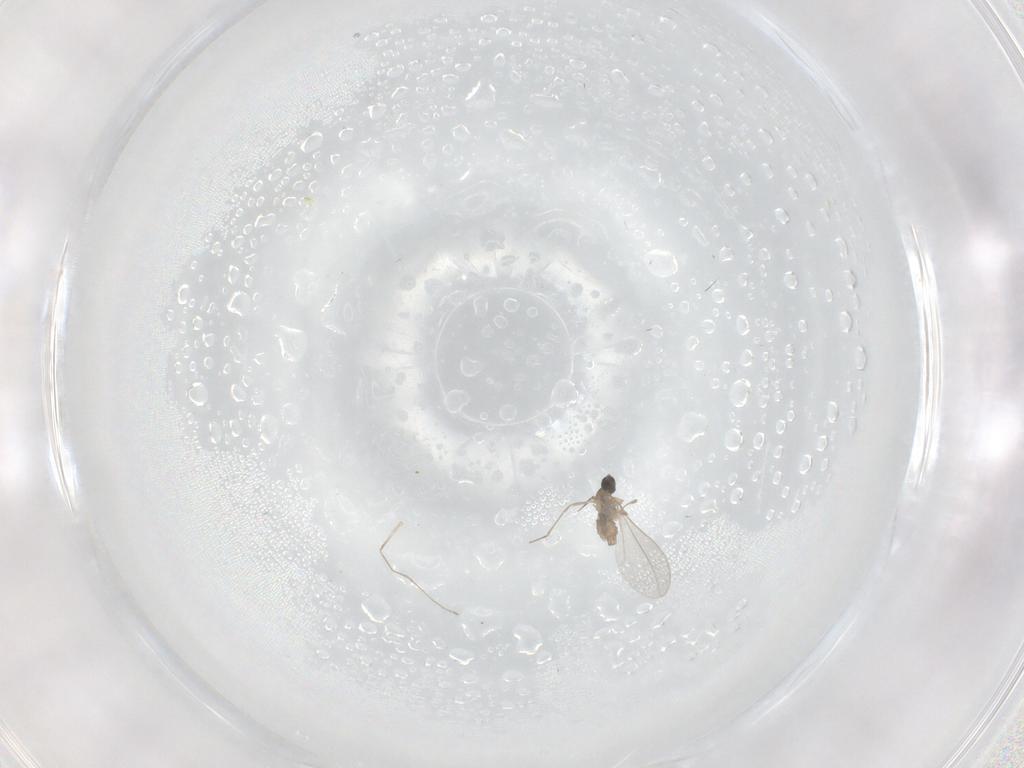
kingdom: Animalia
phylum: Arthropoda
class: Insecta
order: Diptera
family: Cecidomyiidae
